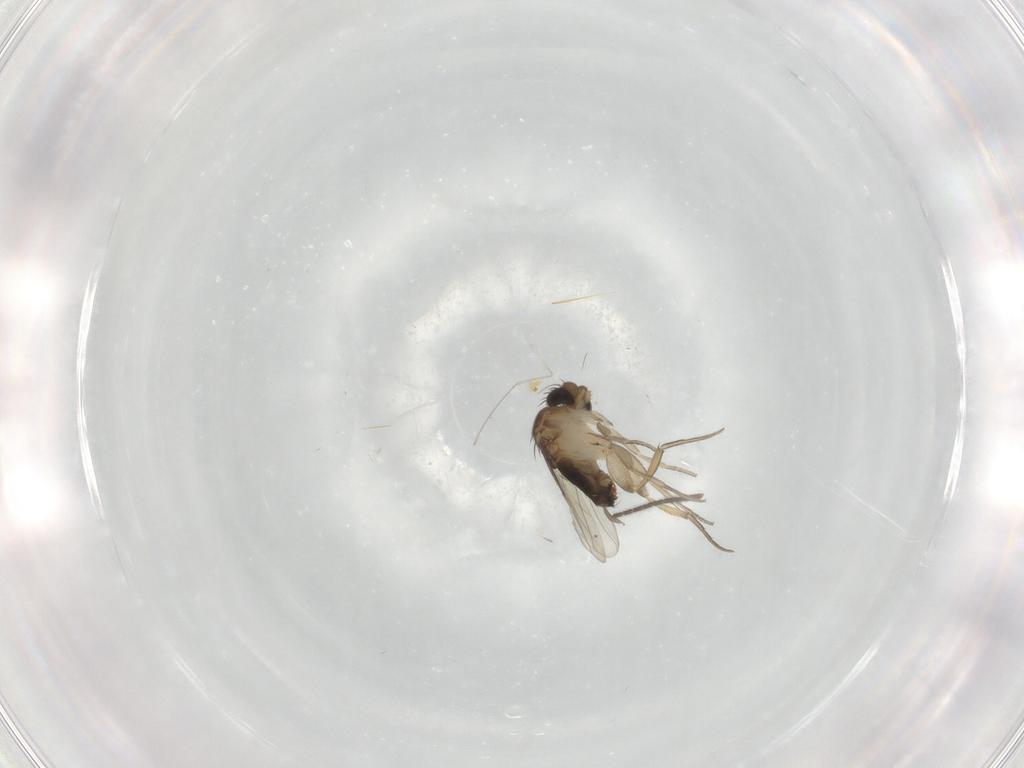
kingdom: Animalia
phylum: Arthropoda
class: Insecta
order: Diptera
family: Sciaridae
